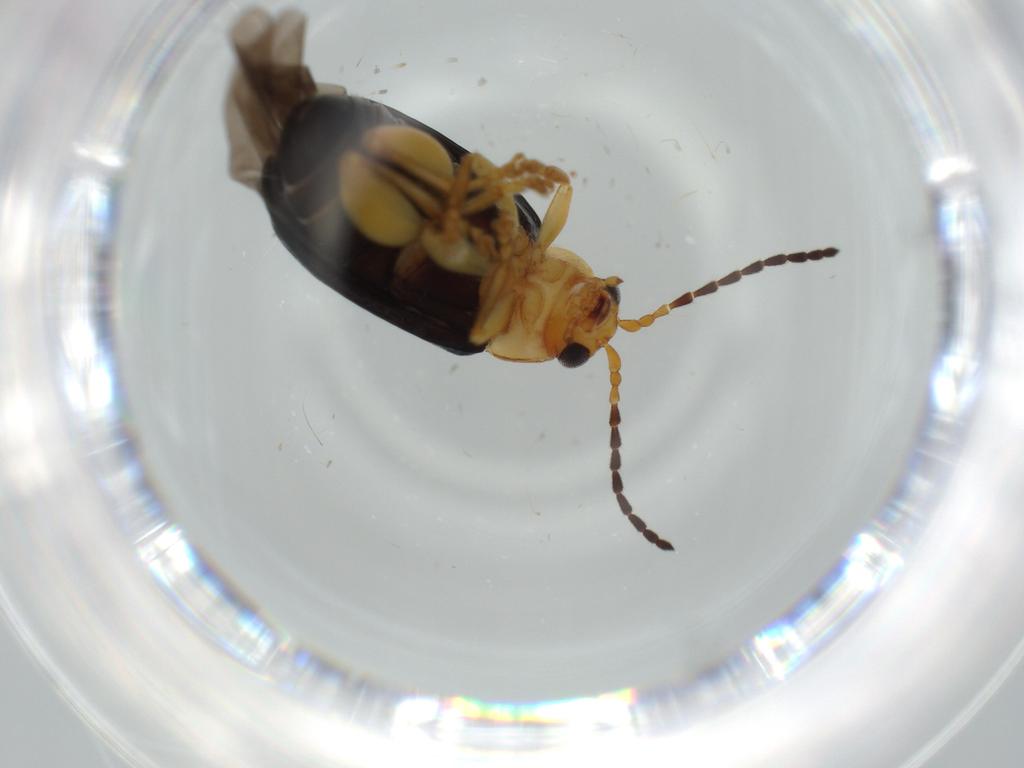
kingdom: Animalia
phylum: Arthropoda
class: Insecta
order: Coleoptera
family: Chrysomelidae
